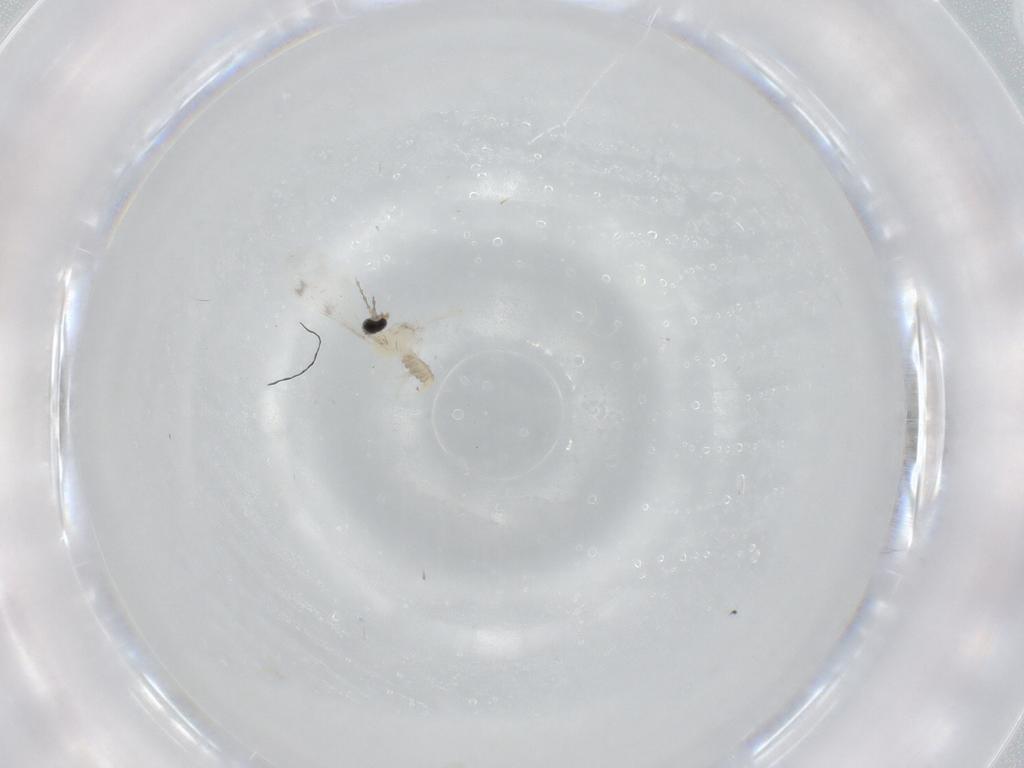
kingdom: Animalia
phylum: Arthropoda
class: Insecta
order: Diptera
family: Cecidomyiidae
